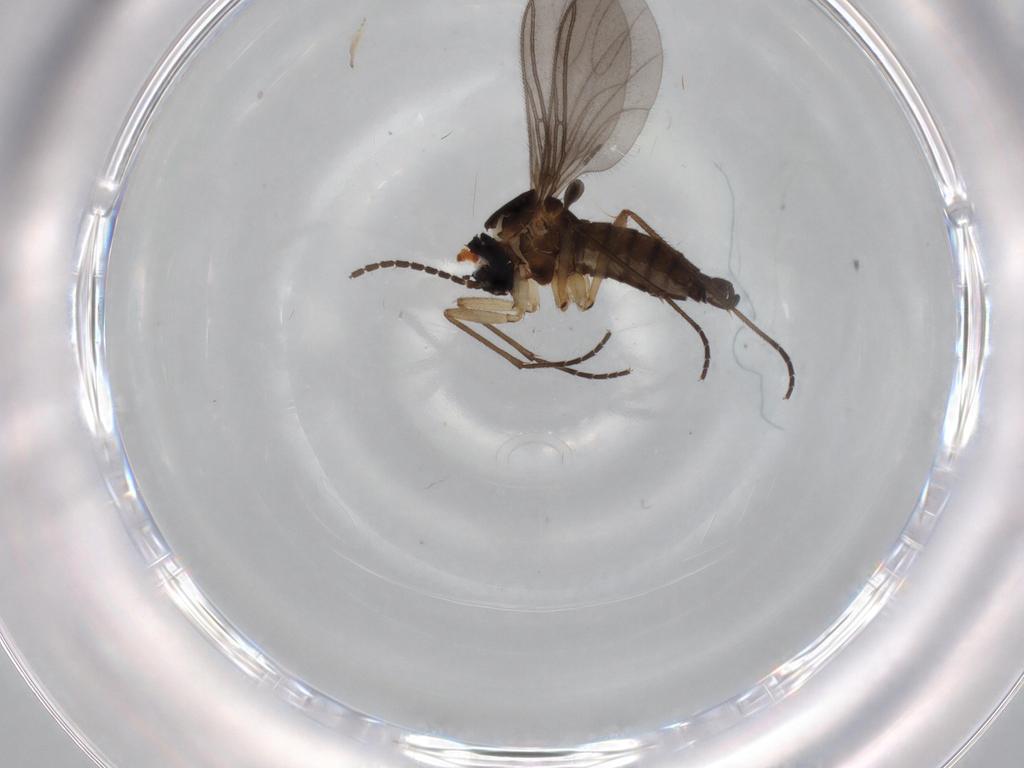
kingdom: Animalia
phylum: Arthropoda
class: Insecta
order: Diptera
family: Sciaridae
